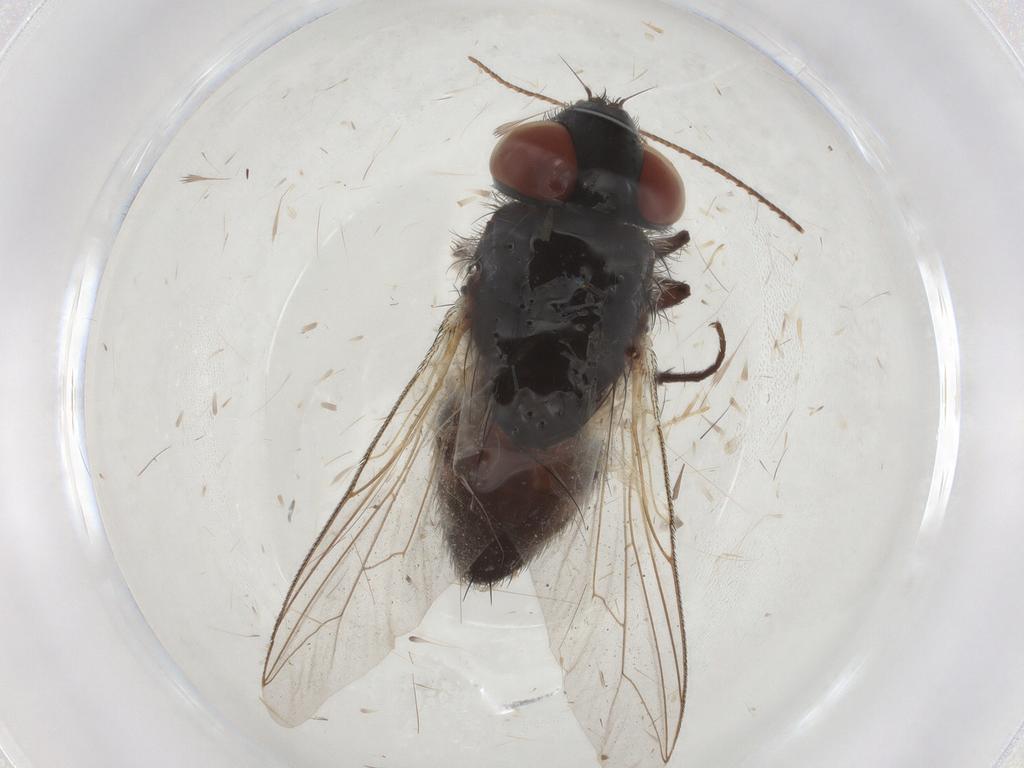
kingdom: Animalia
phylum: Arthropoda
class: Insecta
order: Diptera
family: Sarcophagidae
